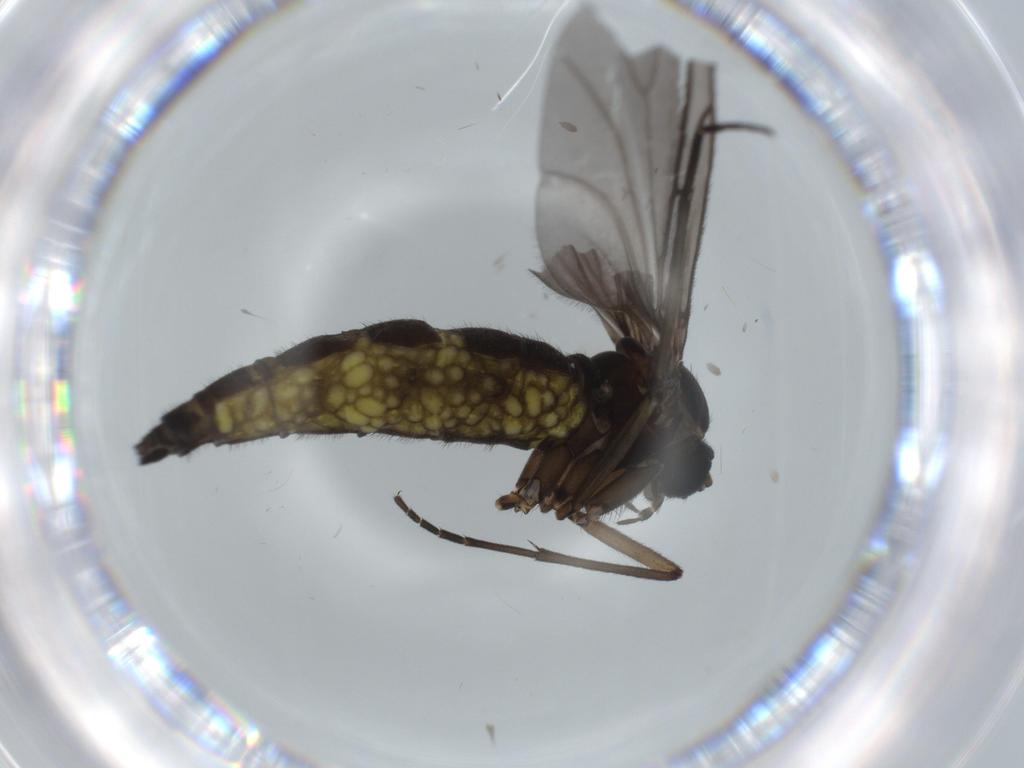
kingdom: Animalia
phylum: Arthropoda
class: Insecta
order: Diptera
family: Sciaridae
